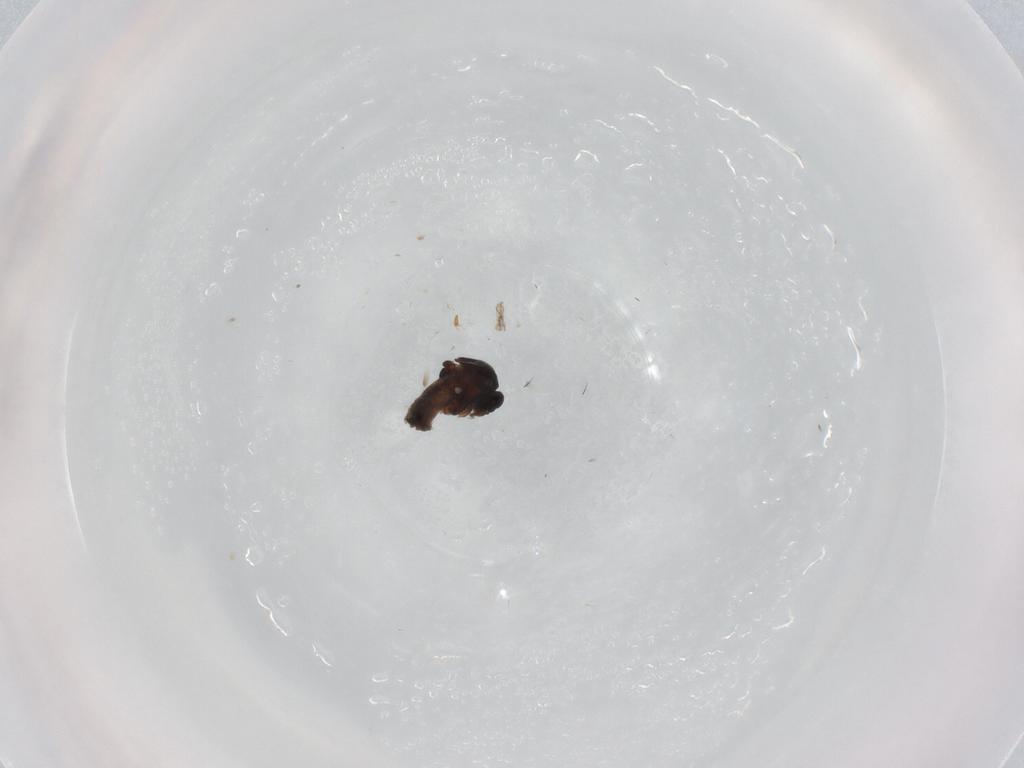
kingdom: Animalia
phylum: Arthropoda
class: Insecta
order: Diptera
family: Ceratopogonidae
